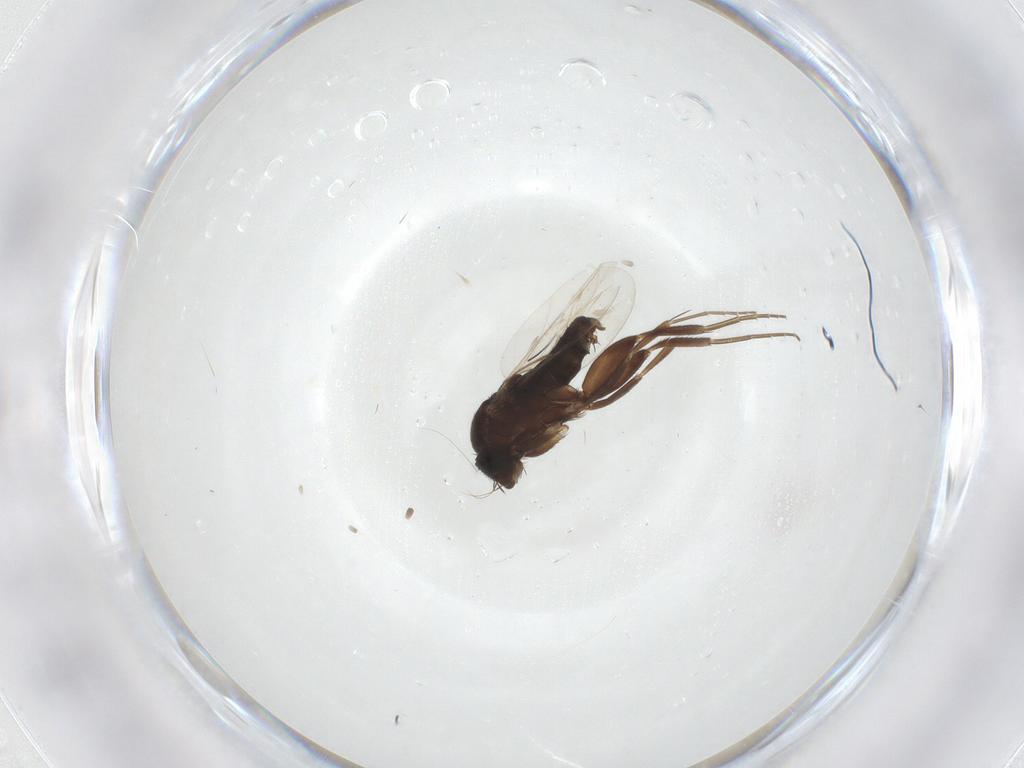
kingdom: Animalia
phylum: Arthropoda
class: Insecta
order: Diptera
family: Phoridae
